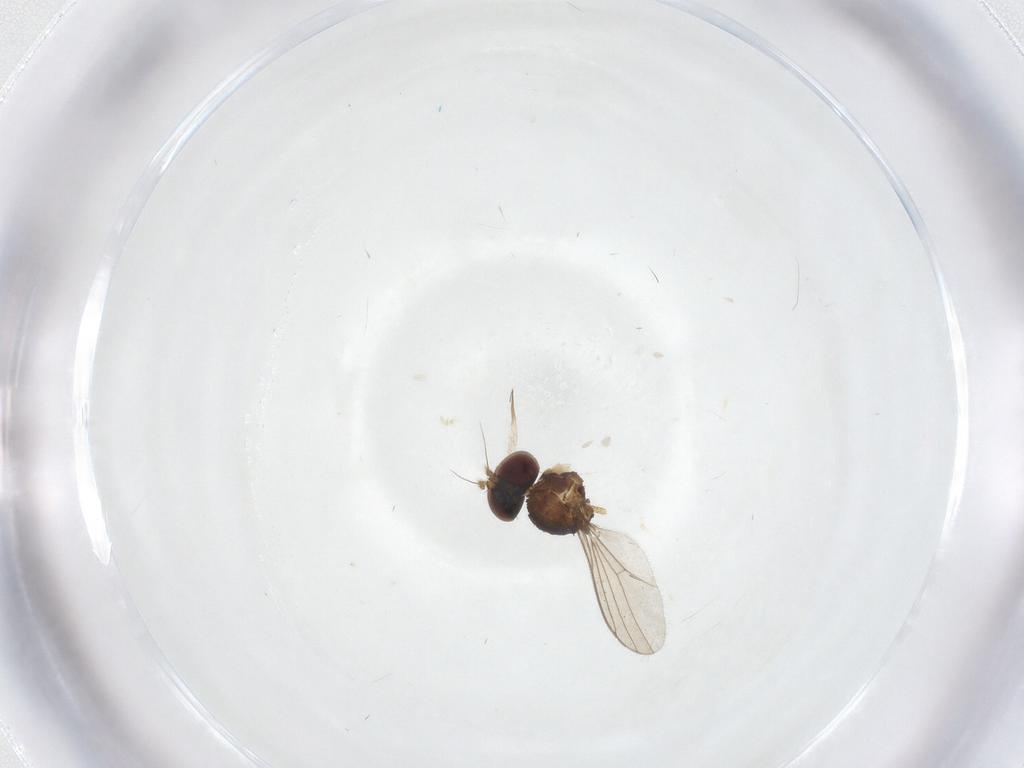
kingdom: Animalia
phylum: Arthropoda
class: Insecta
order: Diptera
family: Dolichopodidae
